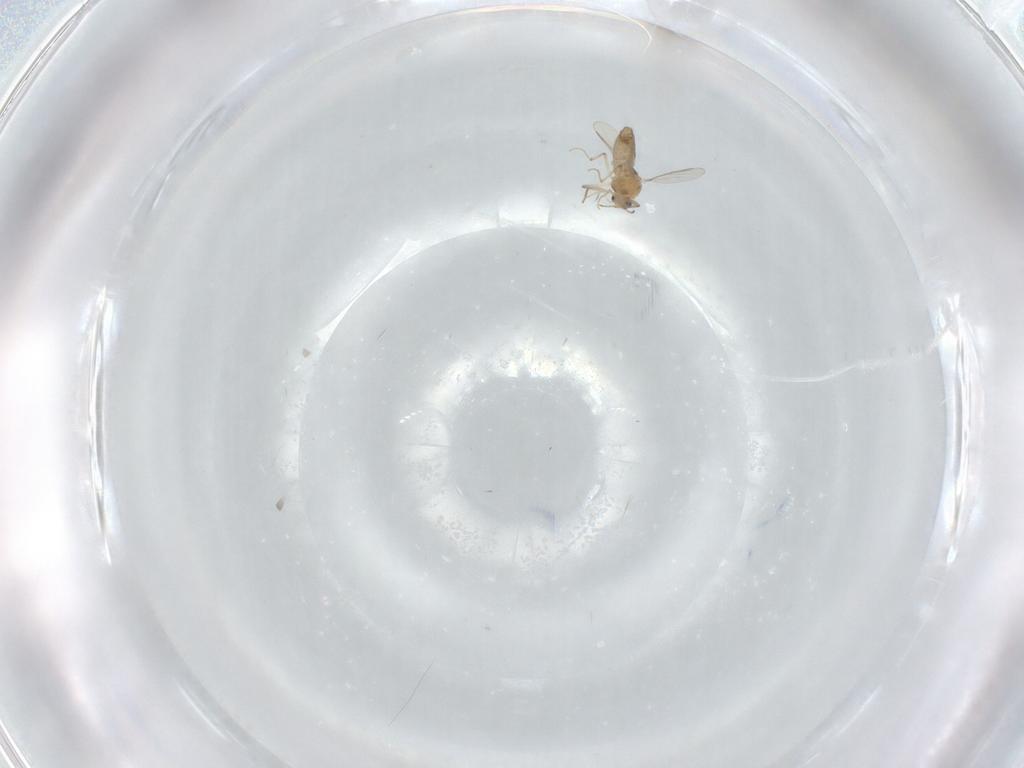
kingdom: Animalia
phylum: Arthropoda
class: Insecta
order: Diptera
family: Chironomidae
